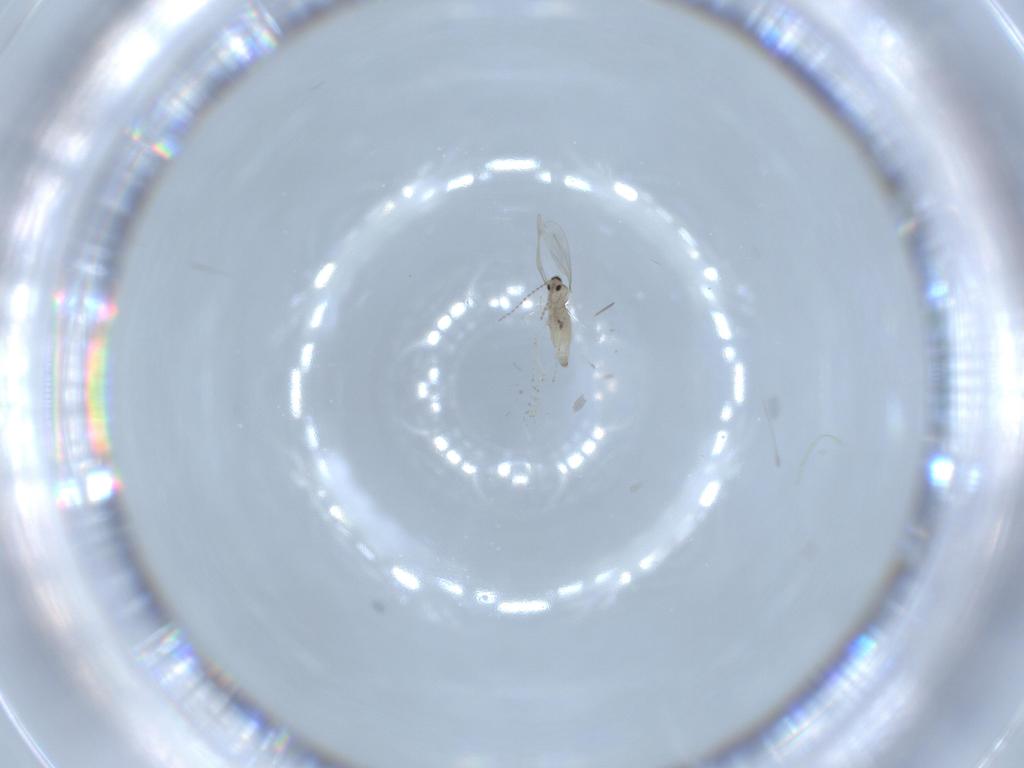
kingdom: Animalia
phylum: Arthropoda
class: Insecta
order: Diptera
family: Cecidomyiidae
